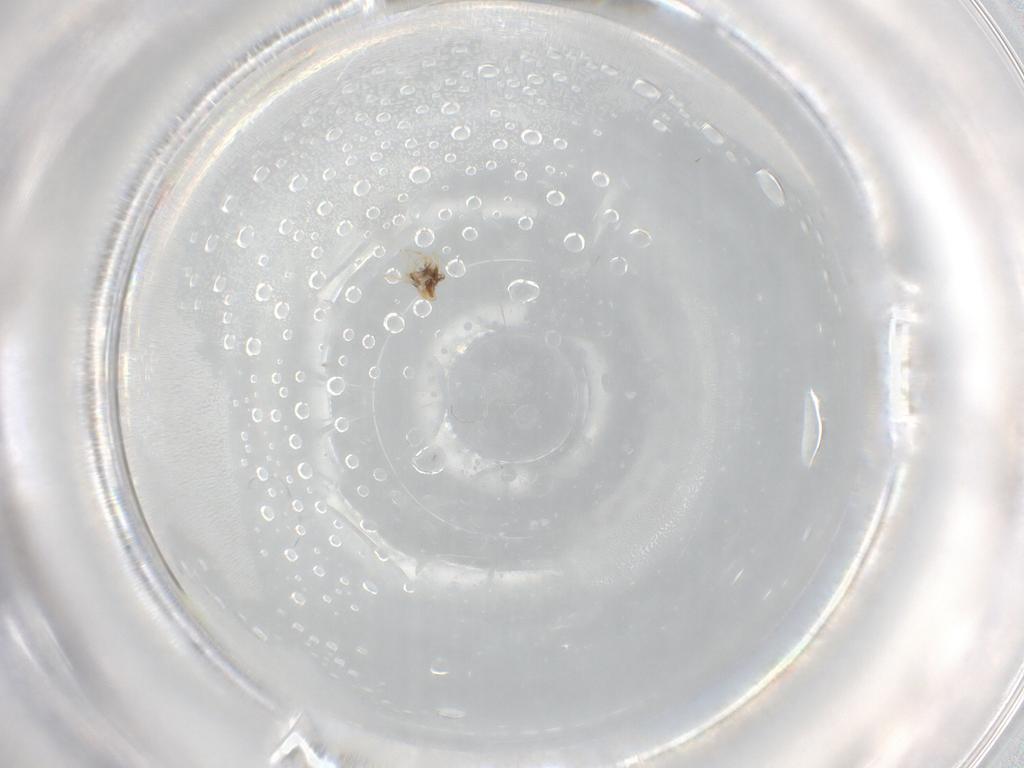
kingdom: Animalia
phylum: Arthropoda
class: Insecta
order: Diptera
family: Chironomidae
